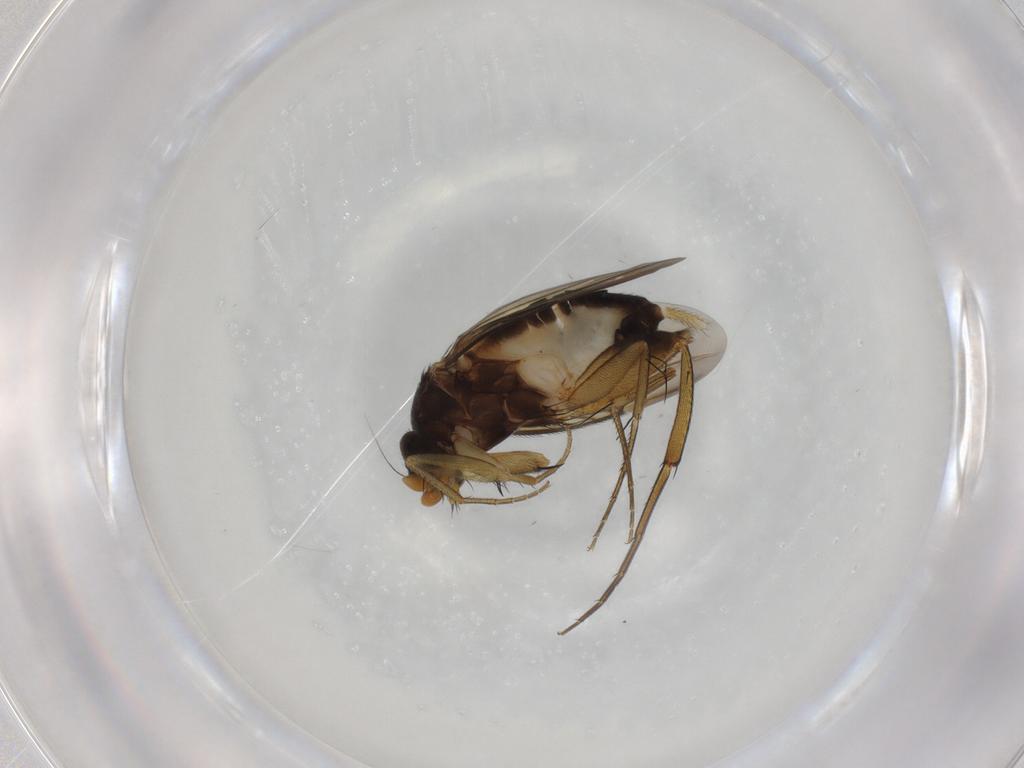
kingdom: Animalia
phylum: Arthropoda
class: Insecta
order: Diptera
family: Phoridae
